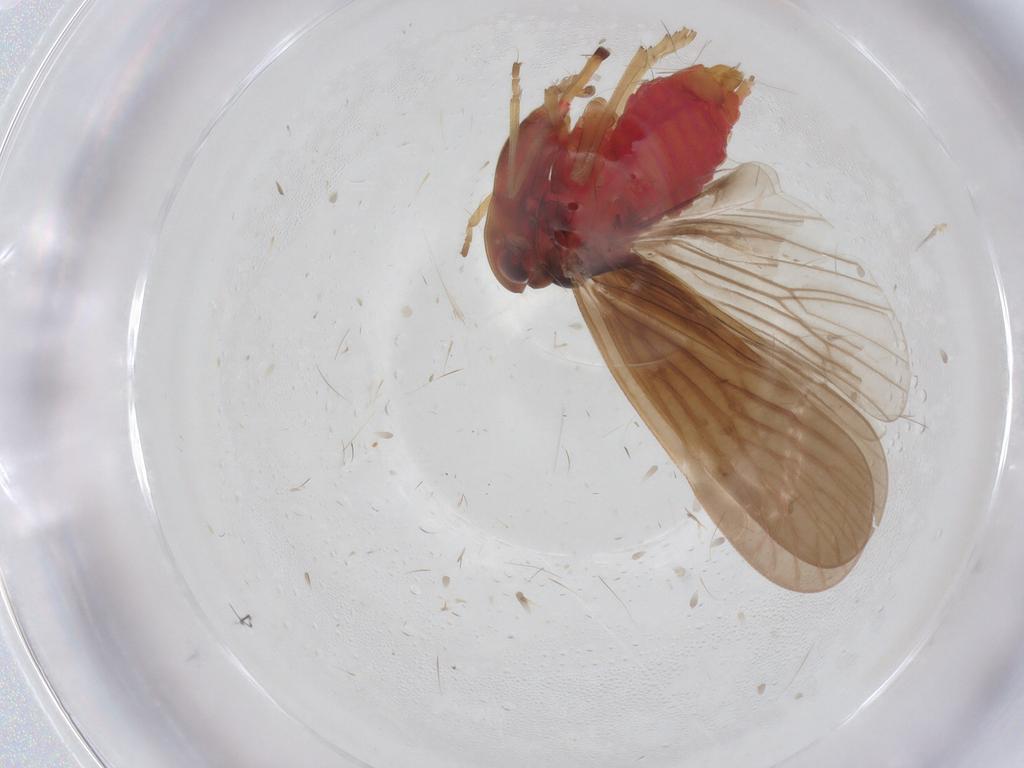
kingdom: Animalia
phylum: Arthropoda
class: Insecta
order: Hemiptera
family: Derbidae
